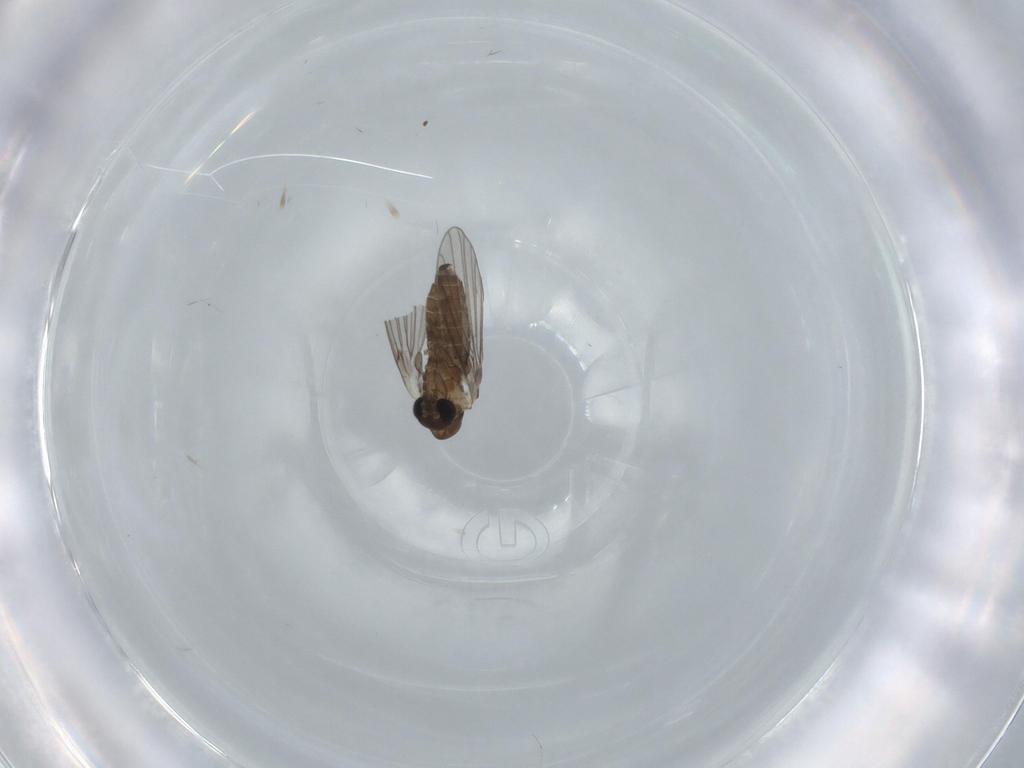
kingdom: Animalia
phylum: Arthropoda
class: Insecta
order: Diptera
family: Psychodidae
